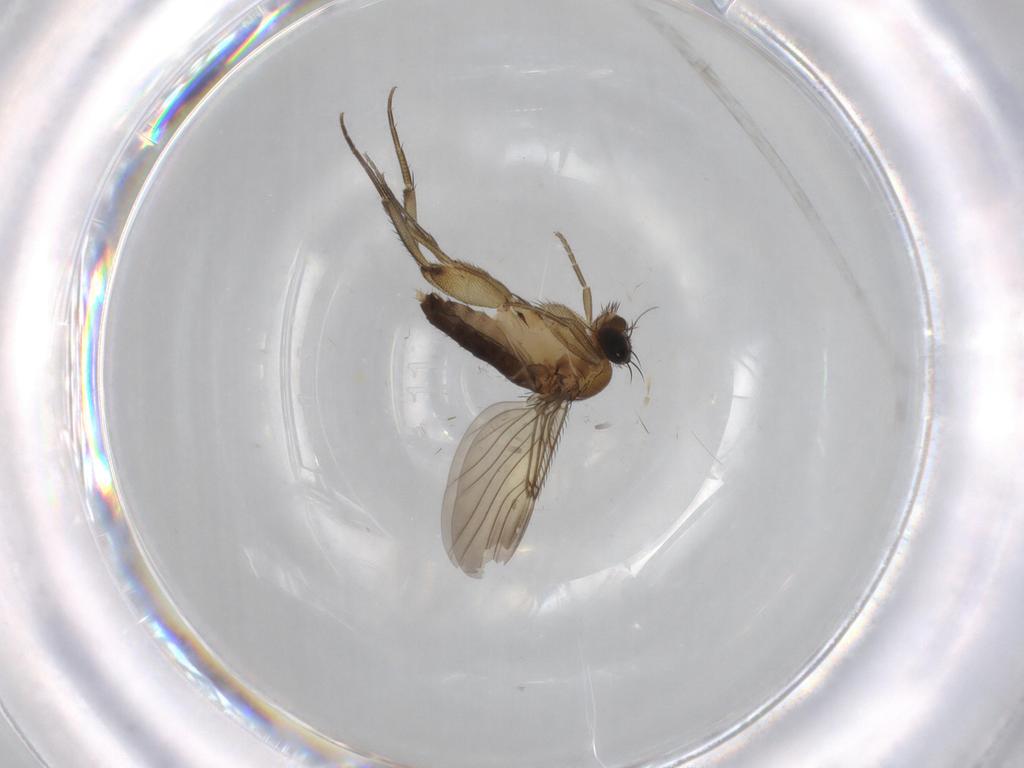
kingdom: Animalia
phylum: Arthropoda
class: Insecta
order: Diptera
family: Phoridae
